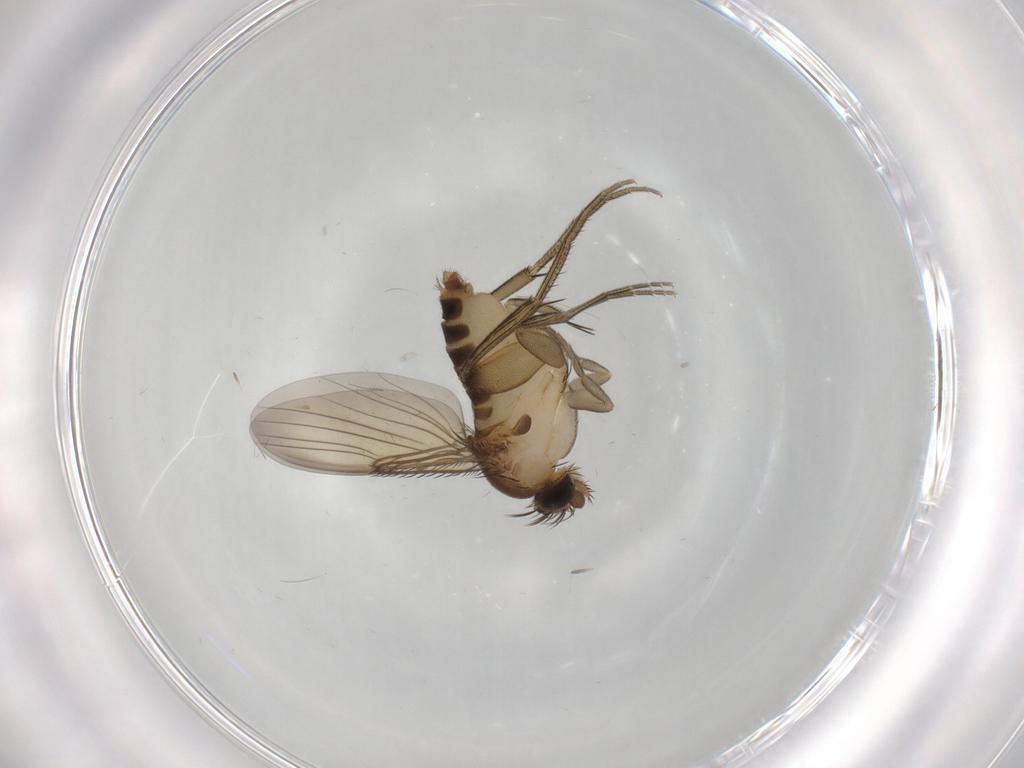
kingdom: Animalia
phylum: Arthropoda
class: Insecta
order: Diptera
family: Phoridae
